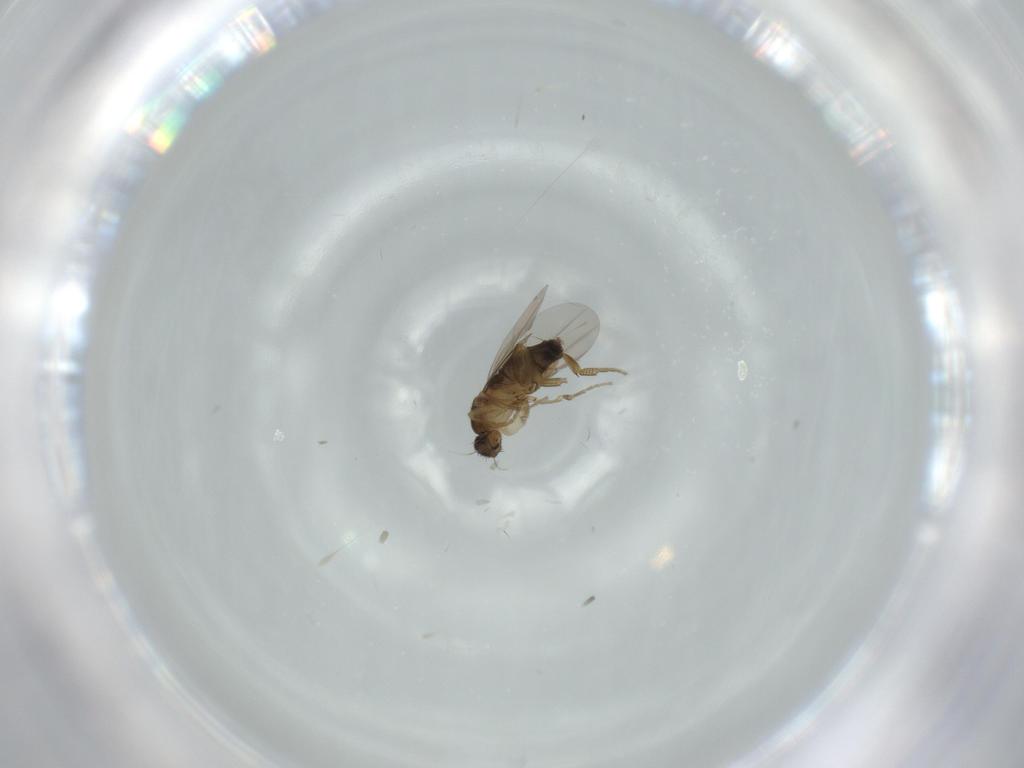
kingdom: Animalia
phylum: Arthropoda
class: Insecta
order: Diptera
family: Phoridae
